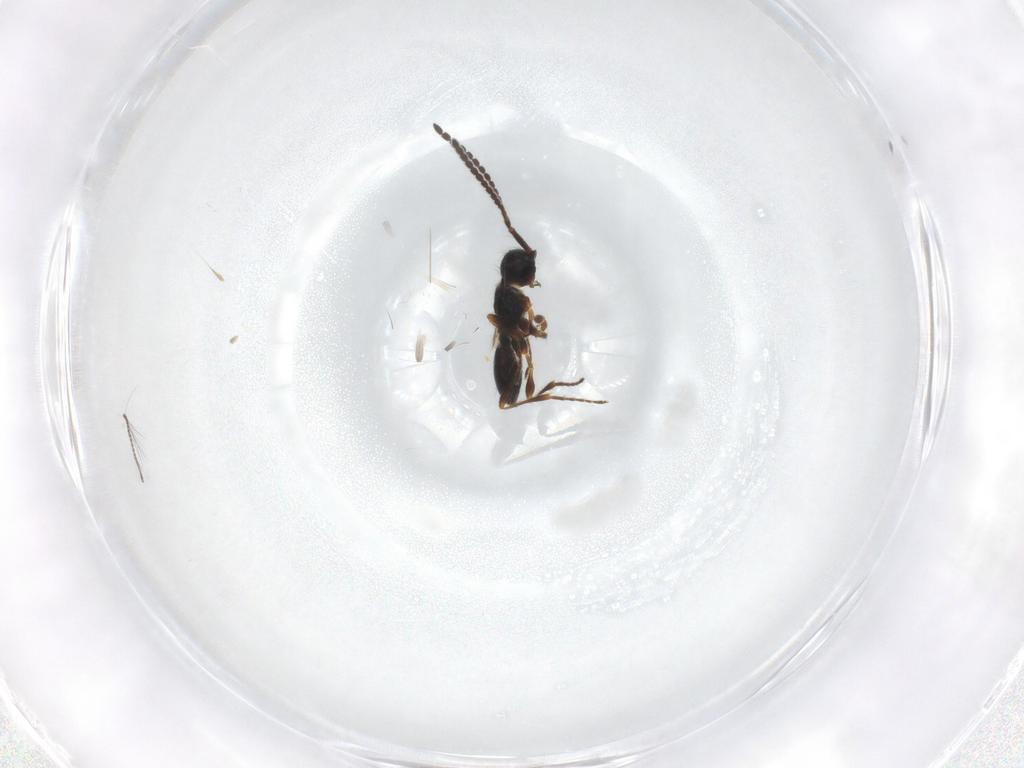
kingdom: Animalia
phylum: Arthropoda
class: Insecta
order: Hymenoptera
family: Diapriidae
